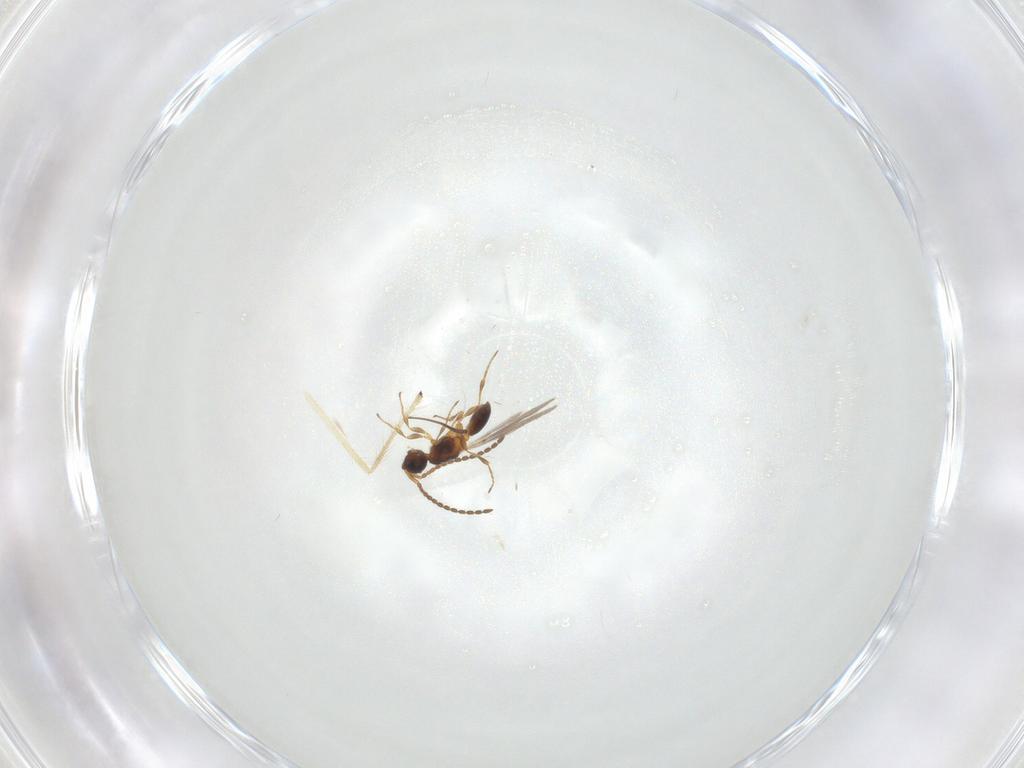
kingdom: Animalia
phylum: Arthropoda
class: Insecta
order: Hymenoptera
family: Diapriidae
